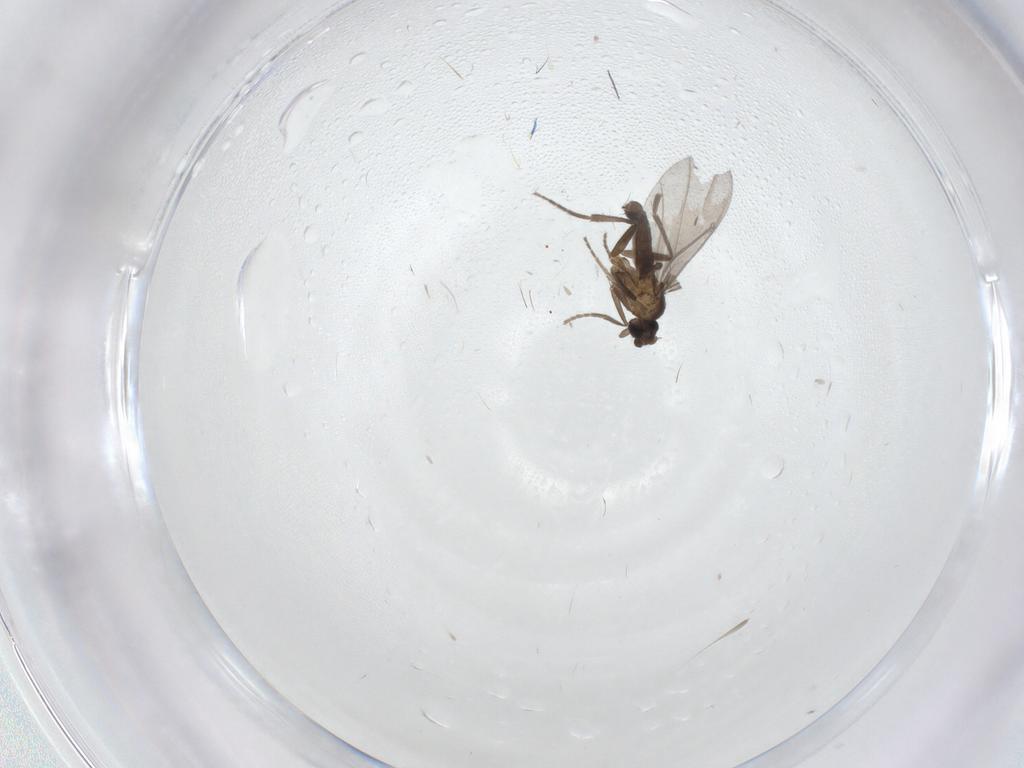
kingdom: Animalia
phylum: Arthropoda
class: Insecta
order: Diptera
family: Phoridae
